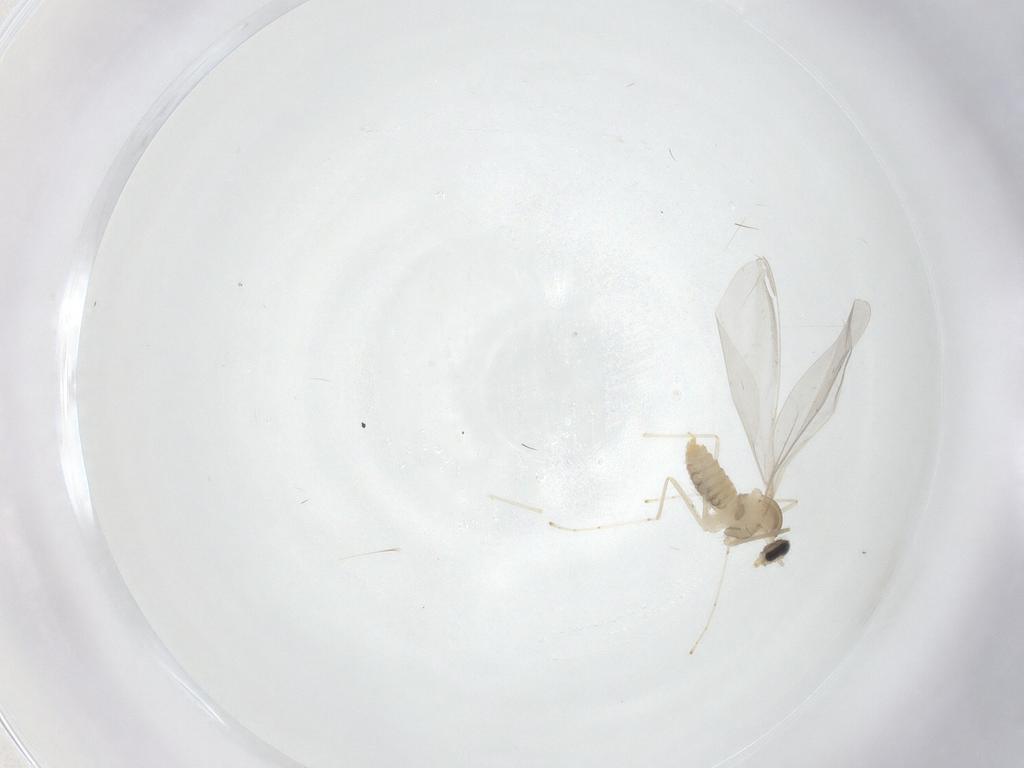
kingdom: Animalia
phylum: Arthropoda
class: Insecta
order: Diptera
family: Cecidomyiidae
